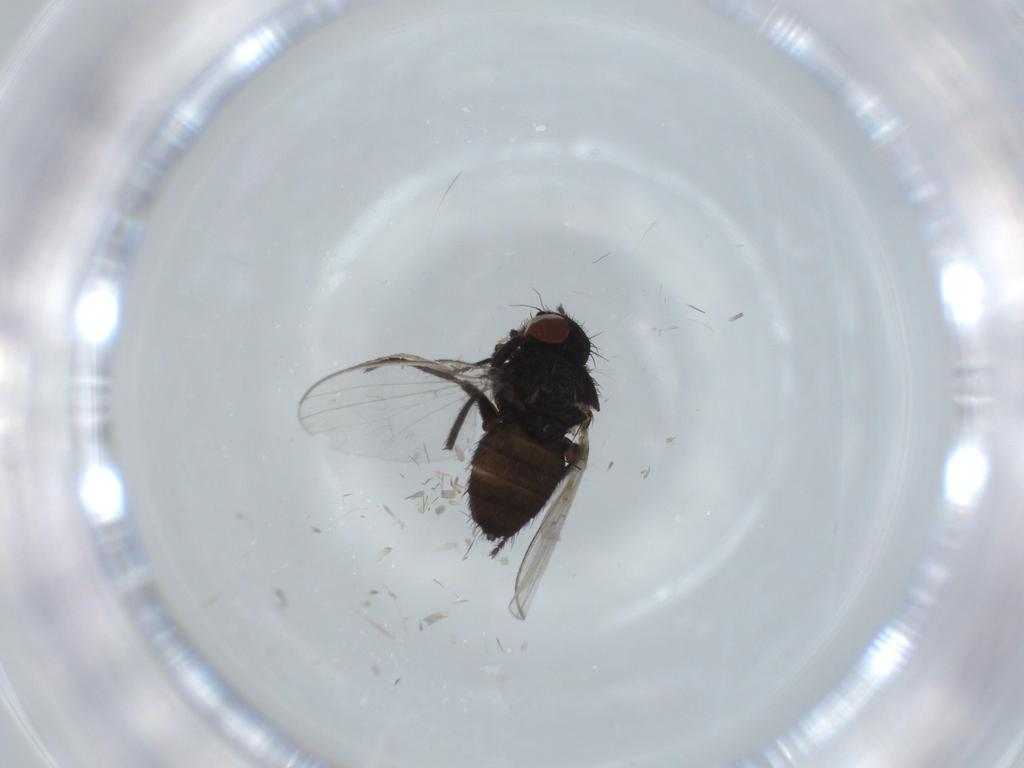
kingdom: Animalia
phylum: Arthropoda
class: Insecta
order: Diptera
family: Milichiidae
